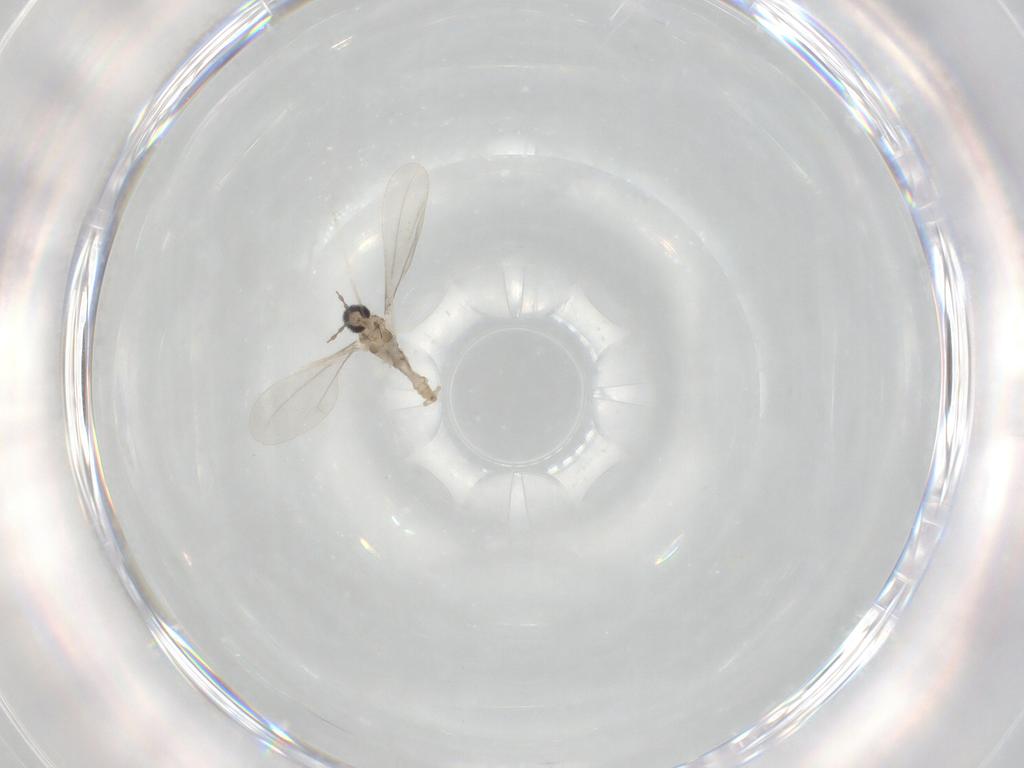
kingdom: Animalia
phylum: Arthropoda
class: Insecta
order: Diptera
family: Cecidomyiidae
